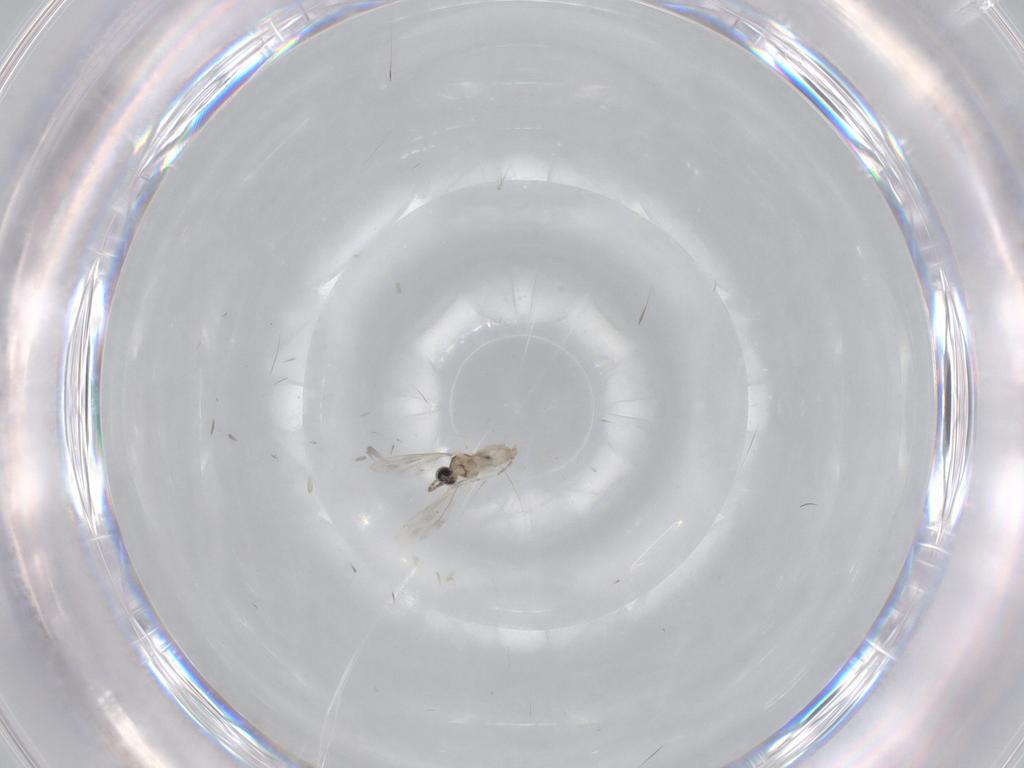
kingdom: Animalia
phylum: Arthropoda
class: Insecta
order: Diptera
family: Cecidomyiidae
